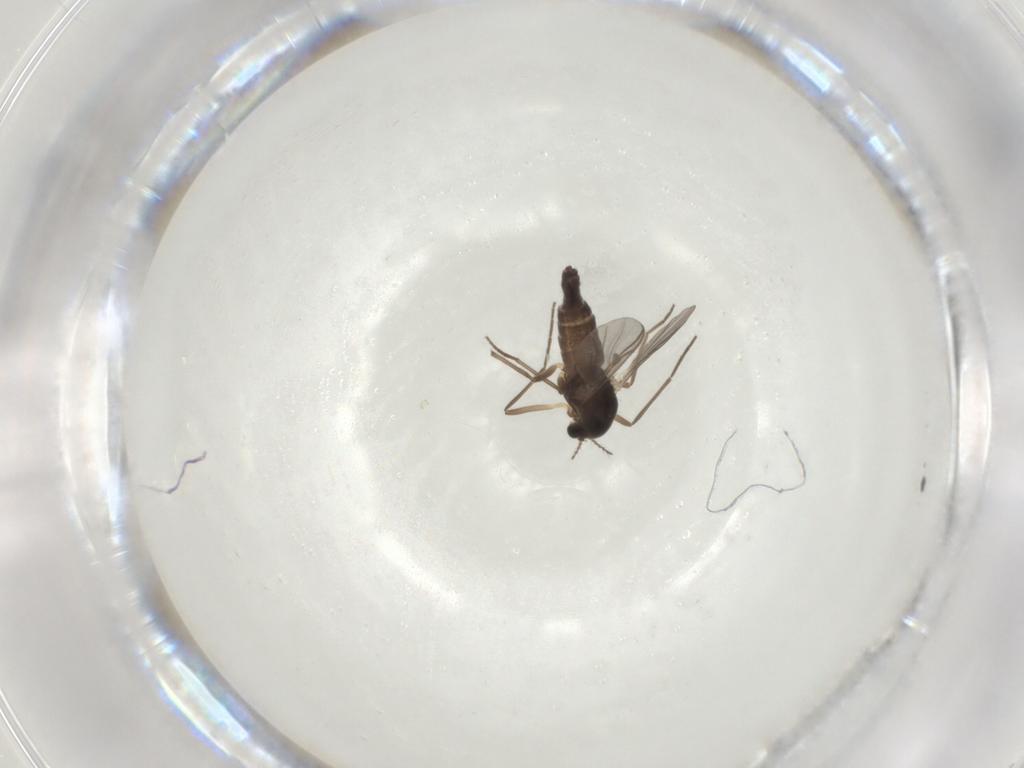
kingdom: Animalia
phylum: Arthropoda
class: Insecta
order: Diptera
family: Chironomidae
